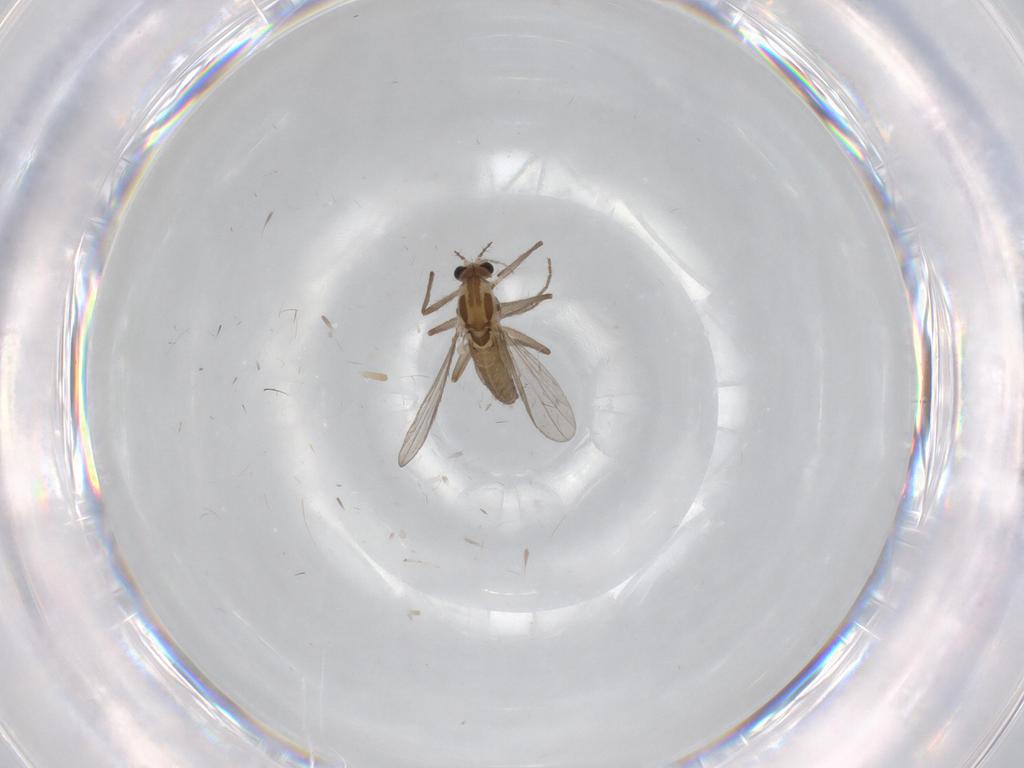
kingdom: Animalia
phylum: Arthropoda
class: Insecta
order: Diptera
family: Chironomidae
